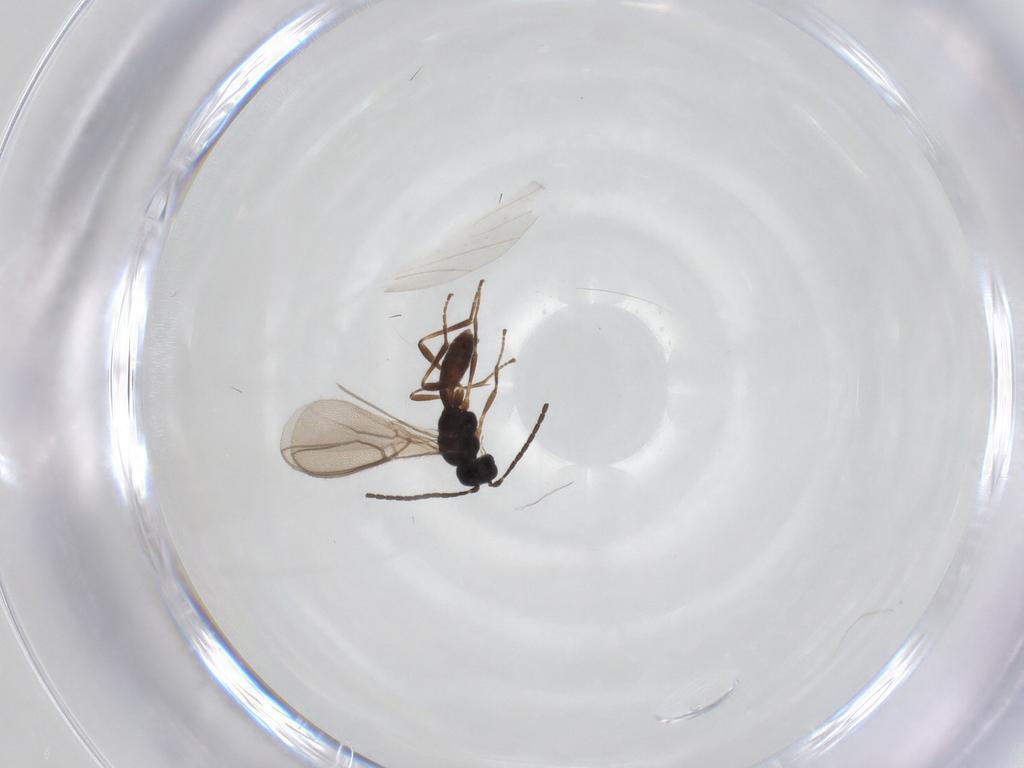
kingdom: Animalia
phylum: Arthropoda
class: Insecta
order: Hymenoptera
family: Braconidae
